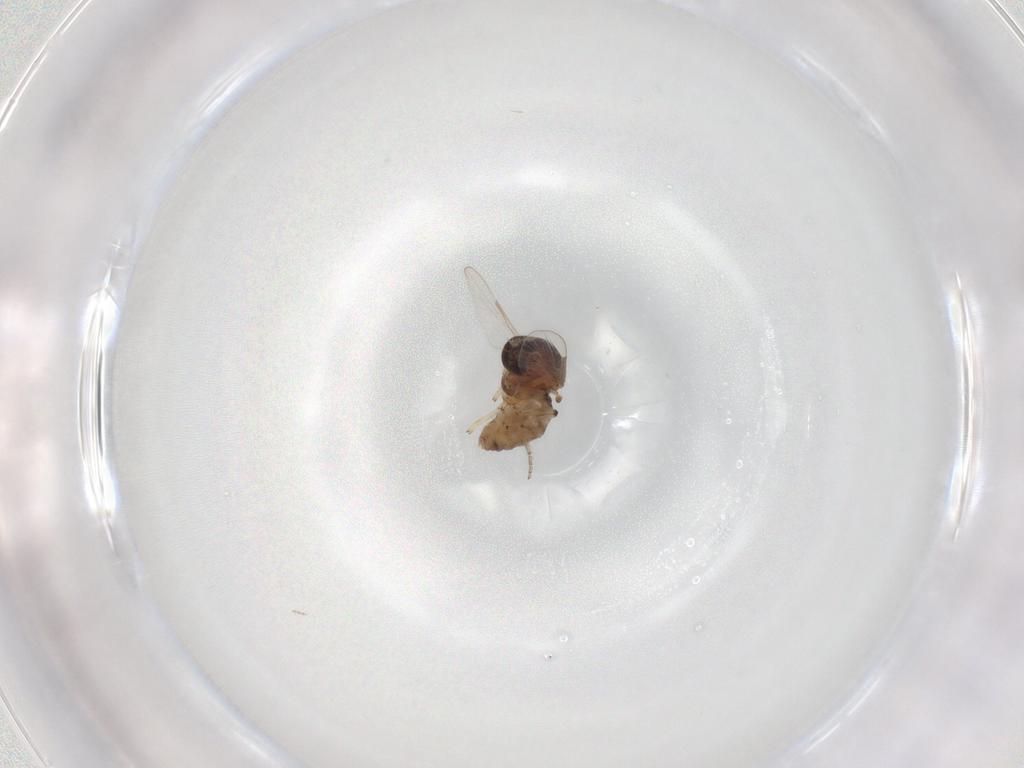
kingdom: Animalia
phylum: Arthropoda
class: Insecta
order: Diptera
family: Ceratopogonidae
